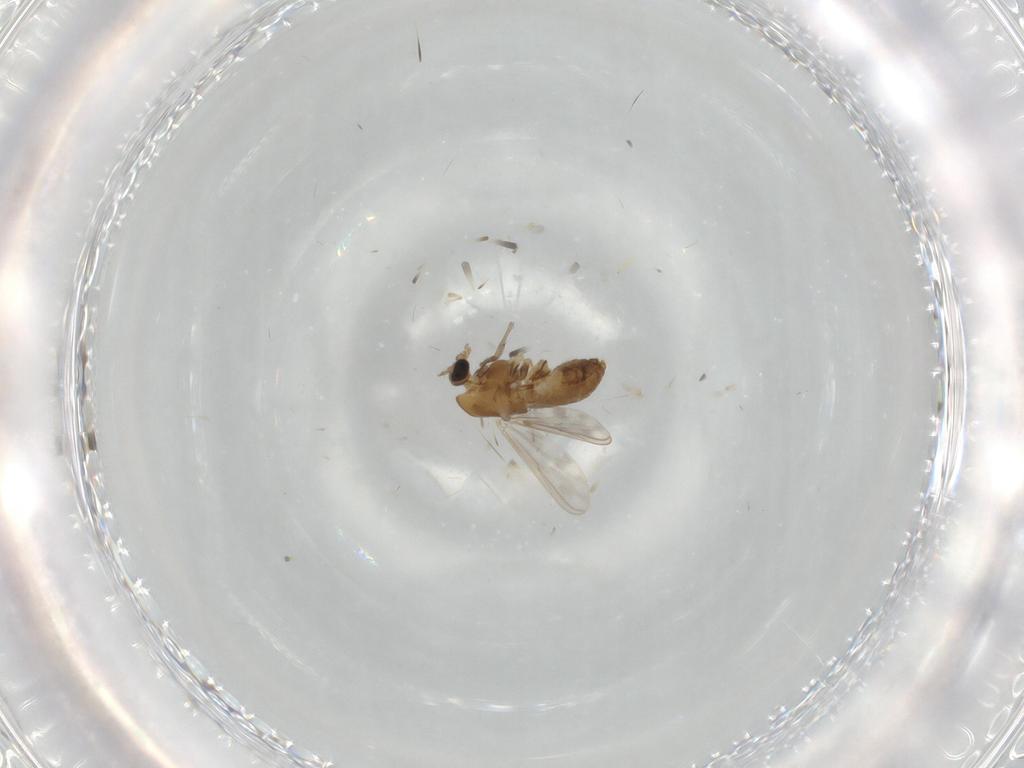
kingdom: Animalia
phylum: Arthropoda
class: Insecta
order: Diptera
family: Chironomidae
